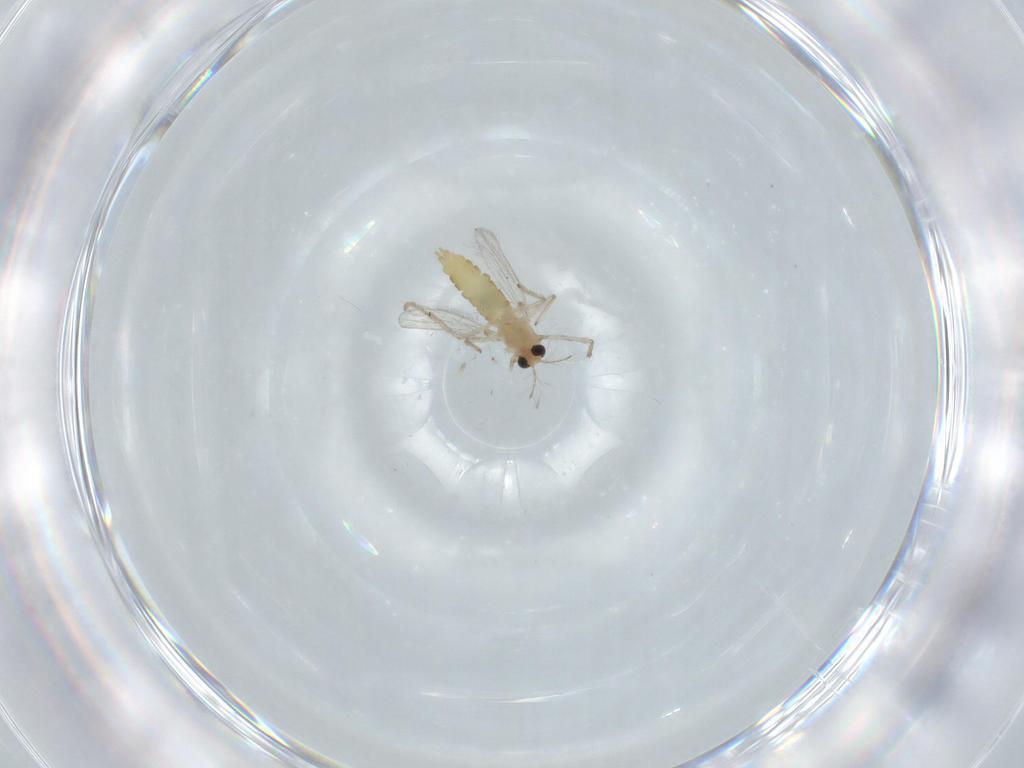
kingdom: Animalia
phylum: Arthropoda
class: Insecta
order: Diptera
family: Chironomidae
